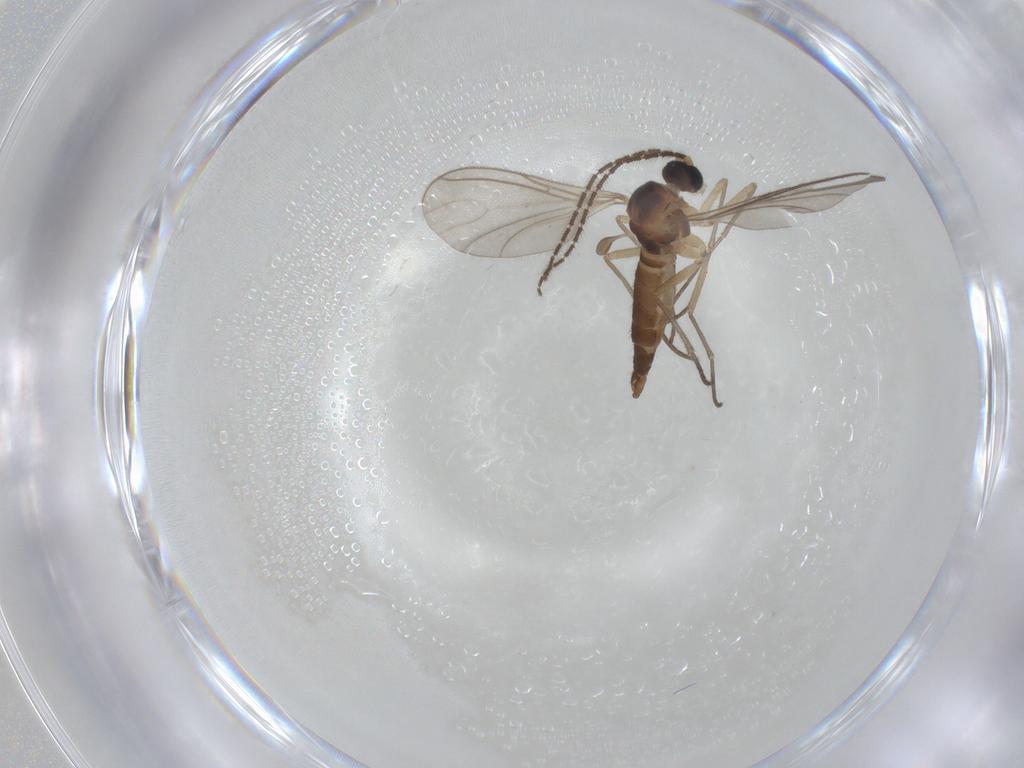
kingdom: Animalia
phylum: Arthropoda
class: Insecta
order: Diptera
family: Sciaridae
